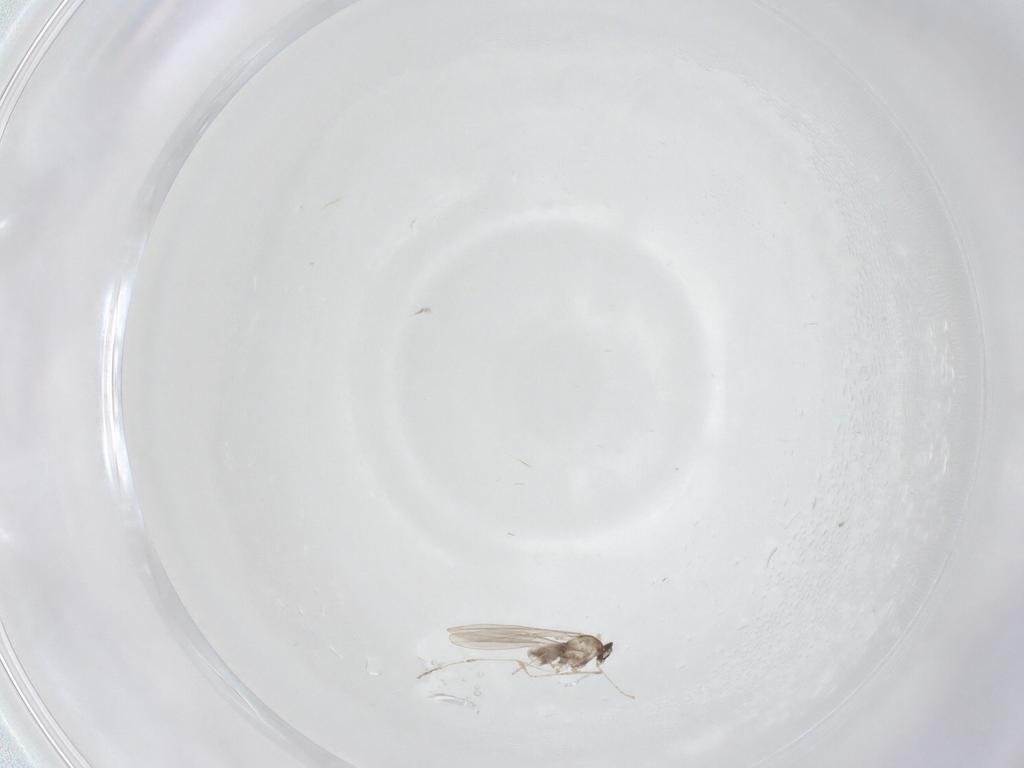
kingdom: Animalia
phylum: Arthropoda
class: Insecta
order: Diptera
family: Cecidomyiidae
